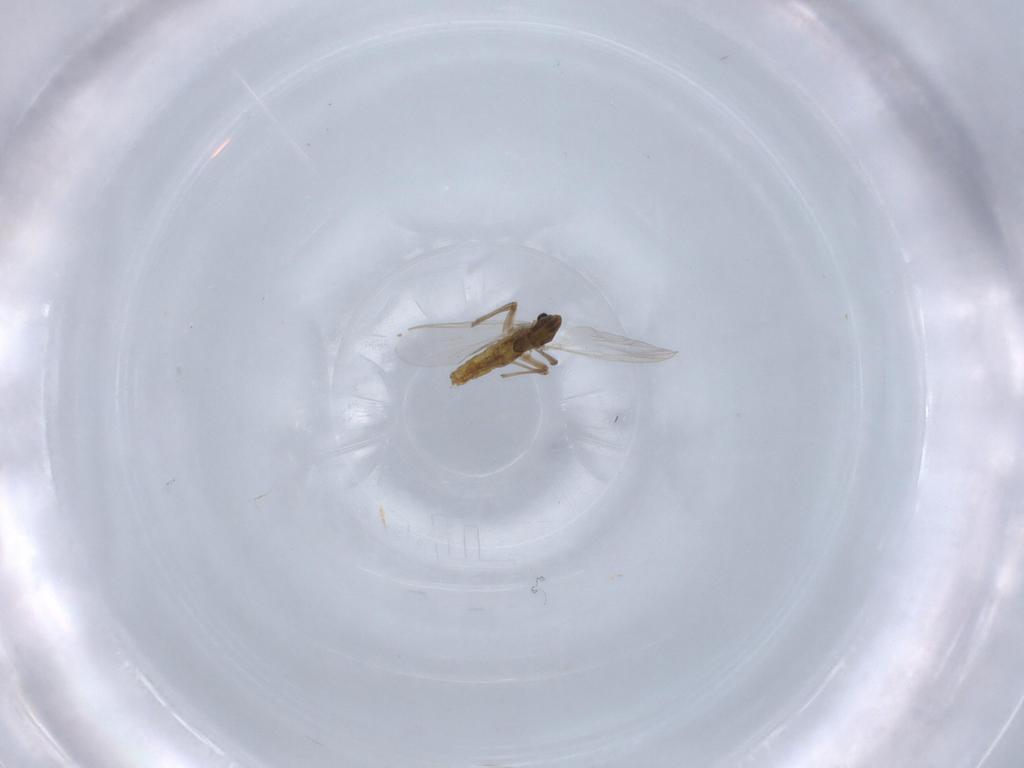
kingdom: Animalia
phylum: Arthropoda
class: Insecta
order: Diptera
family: Chironomidae
